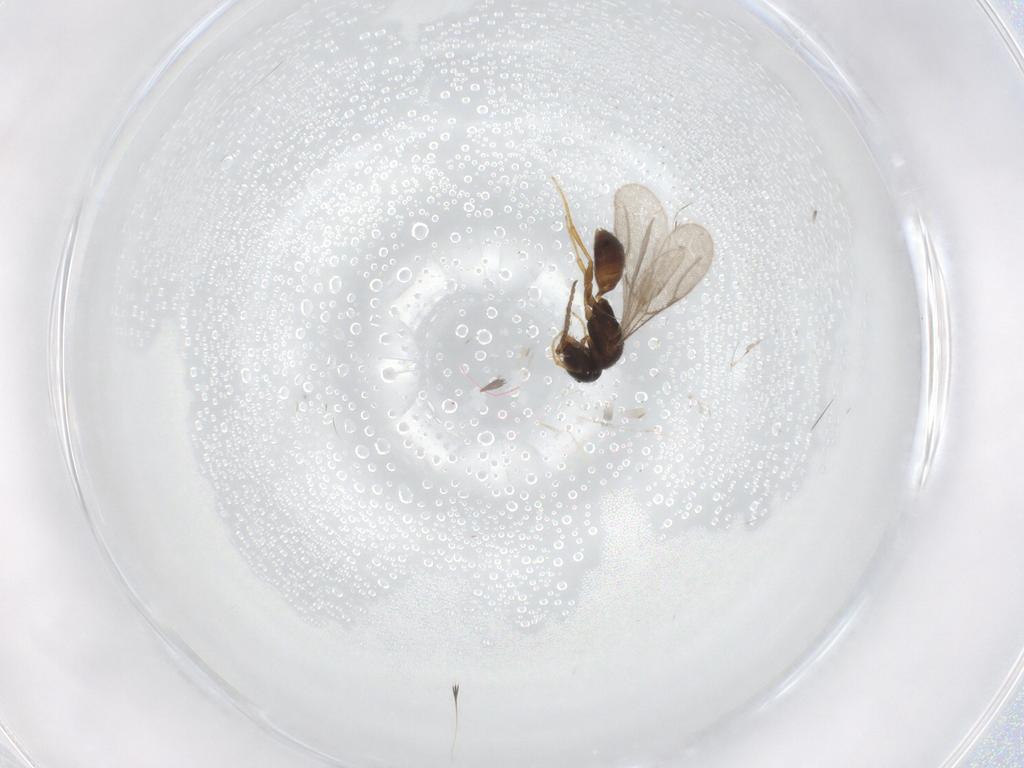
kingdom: Animalia
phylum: Arthropoda
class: Insecta
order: Hymenoptera
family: Bethylidae
